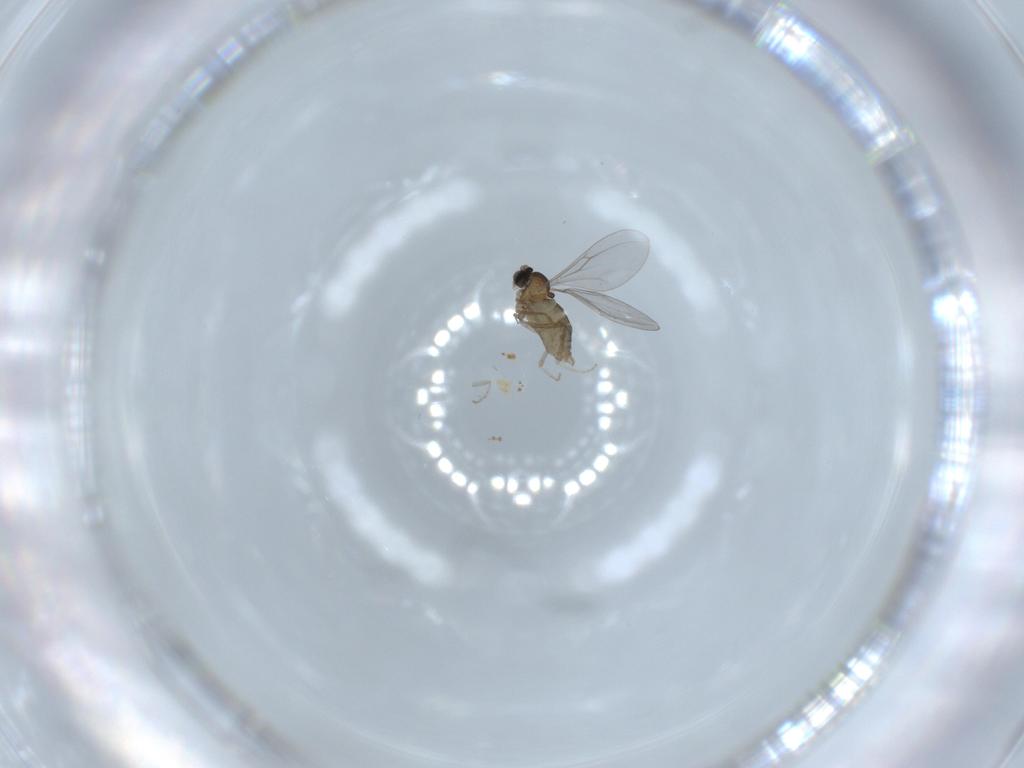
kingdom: Animalia
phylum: Arthropoda
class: Insecta
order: Diptera
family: Cecidomyiidae
